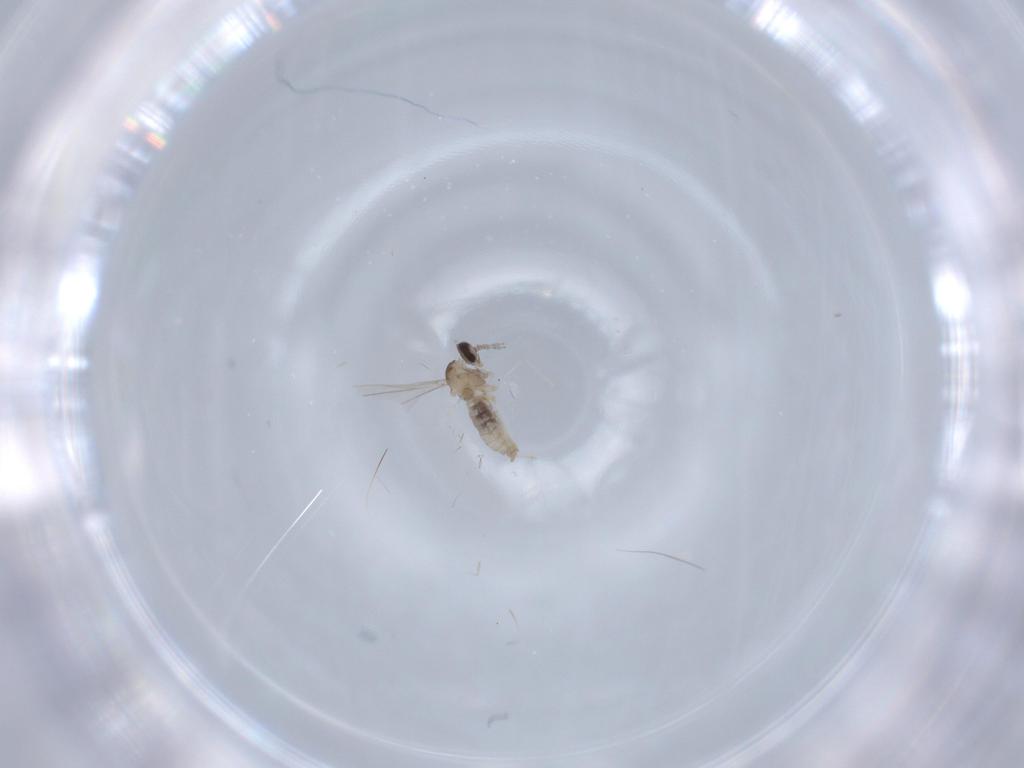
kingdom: Animalia
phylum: Arthropoda
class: Insecta
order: Diptera
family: Cecidomyiidae
